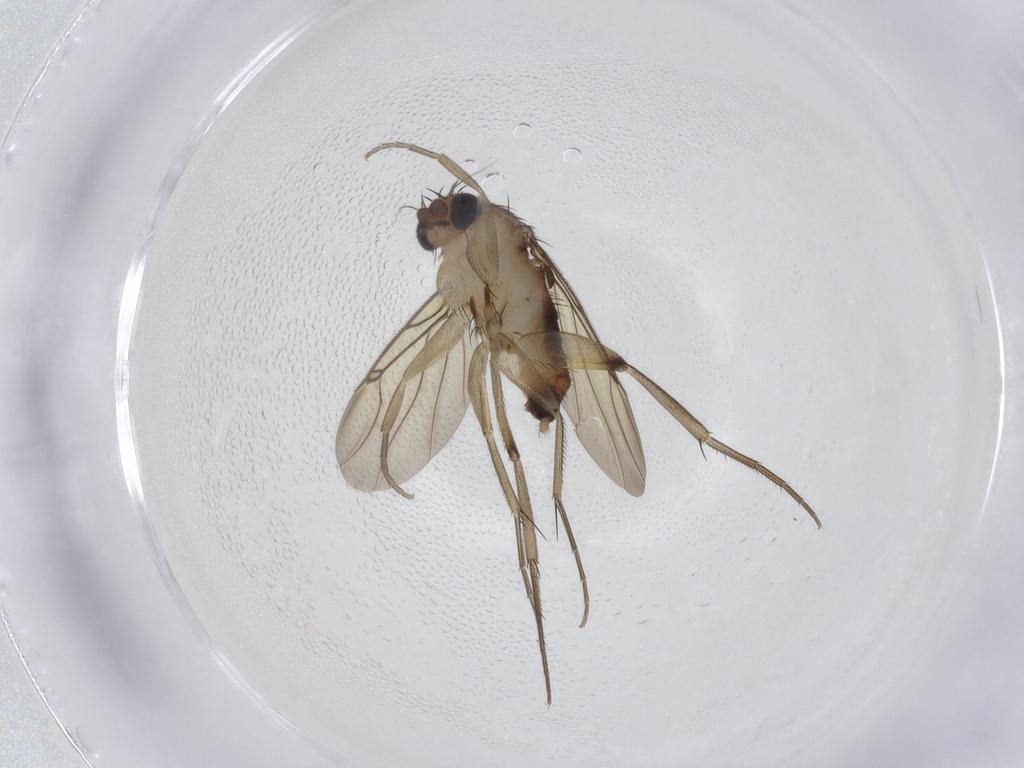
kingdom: Animalia
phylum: Arthropoda
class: Insecta
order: Diptera
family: Phoridae
